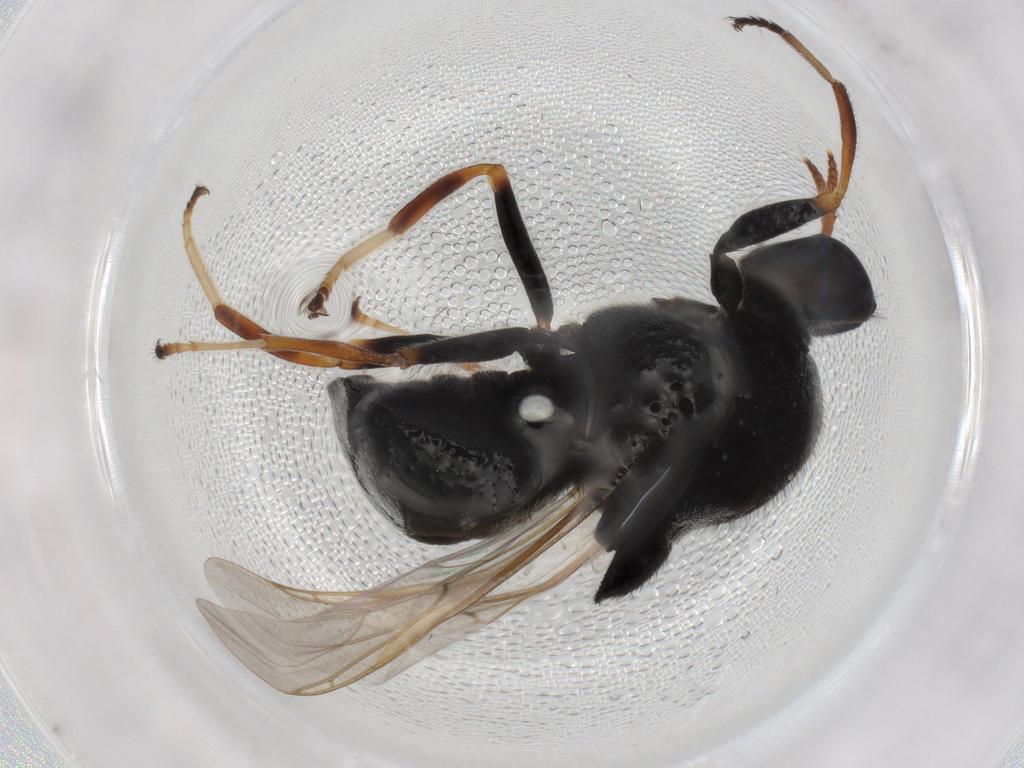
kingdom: Animalia
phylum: Arthropoda
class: Insecta
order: Diptera
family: Stratiomyidae
